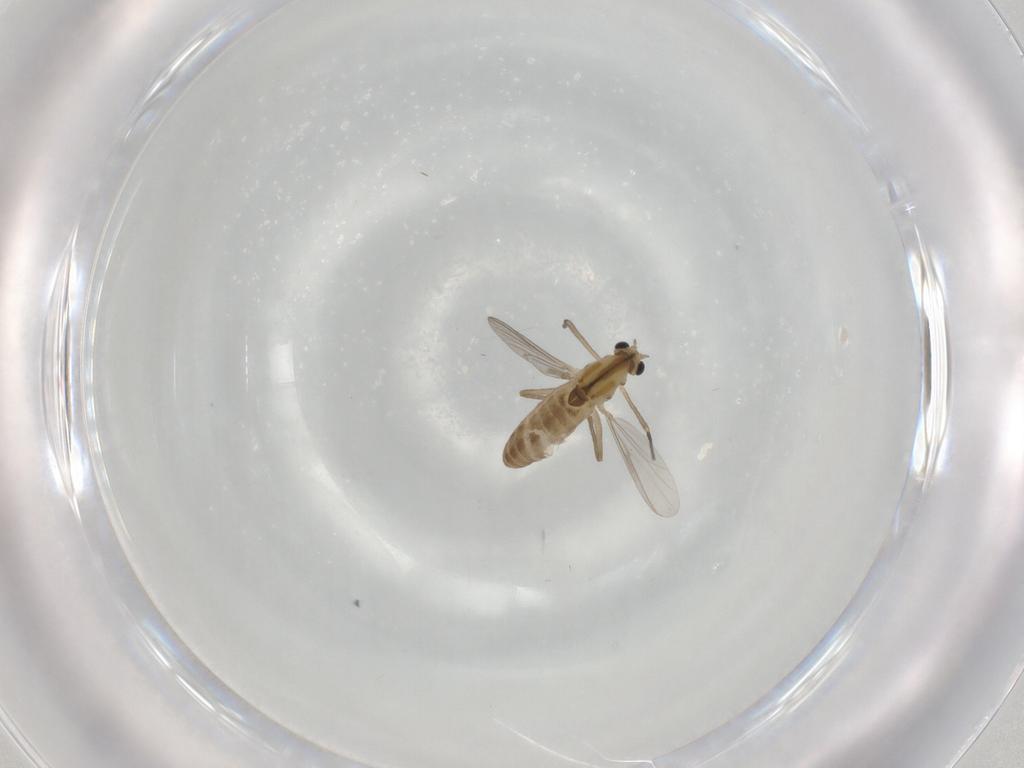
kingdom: Animalia
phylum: Arthropoda
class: Insecta
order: Diptera
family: Chironomidae
